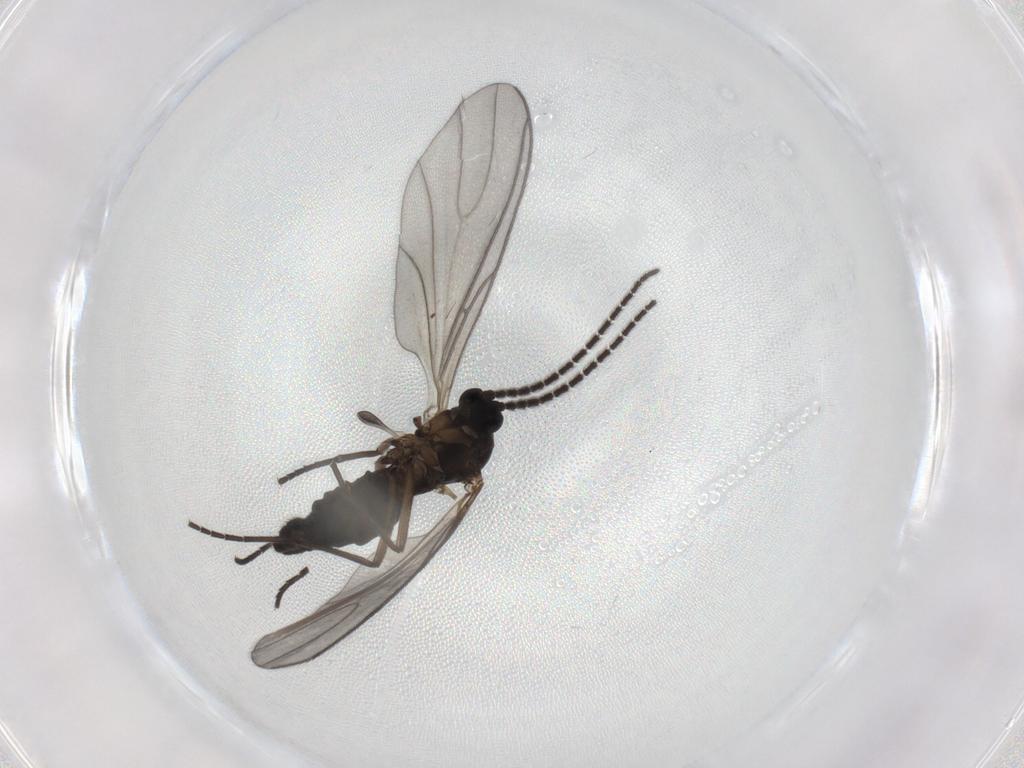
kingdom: Animalia
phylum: Arthropoda
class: Insecta
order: Diptera
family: Sciaridae
